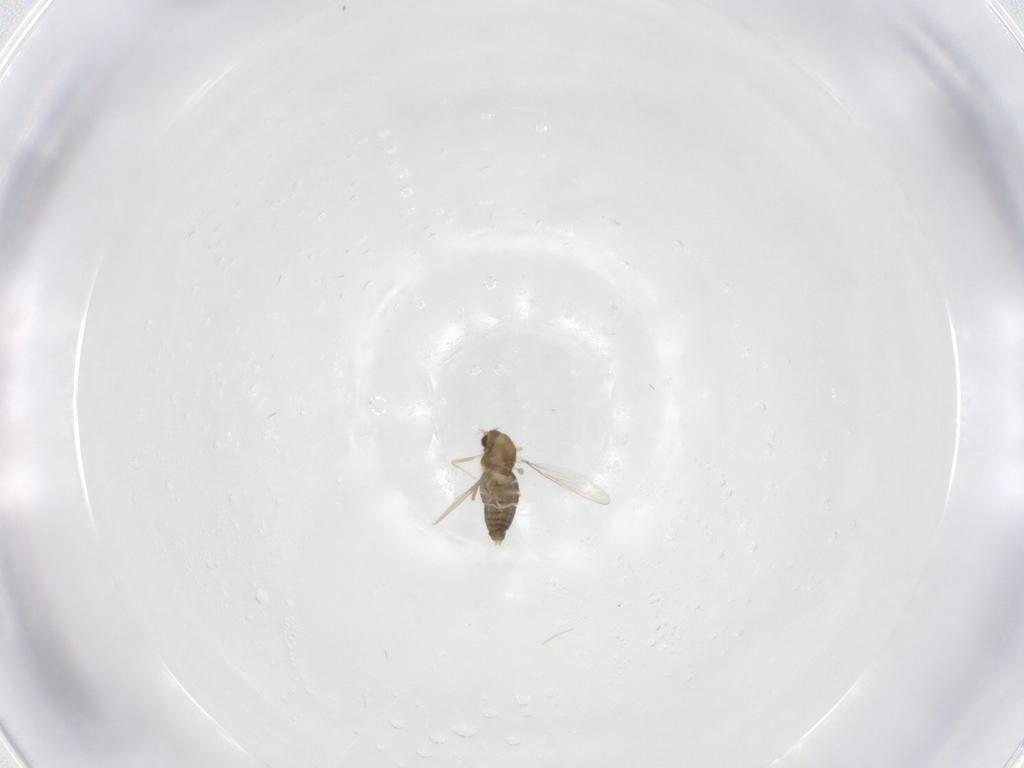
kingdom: Animalia
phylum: Arthropoda
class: Insecta
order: Diptera
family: Chironomidae
